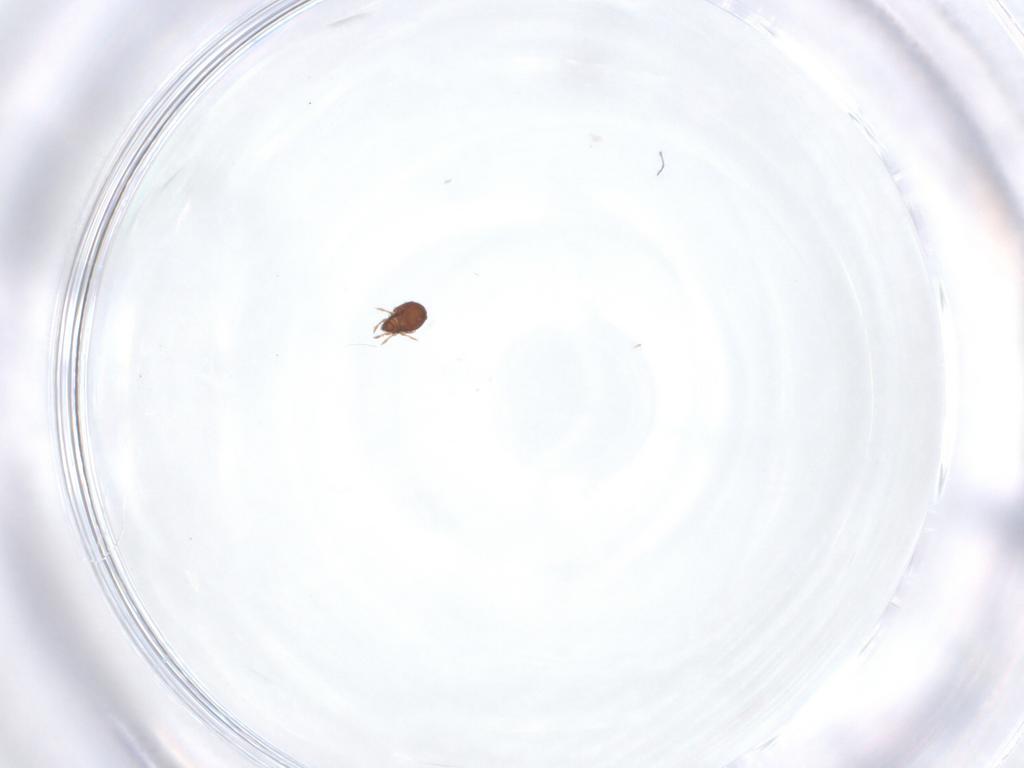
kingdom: Animalia
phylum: Arthropoda
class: Arachnida
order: Sarcoptiformes
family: Dendroeremaeidae
